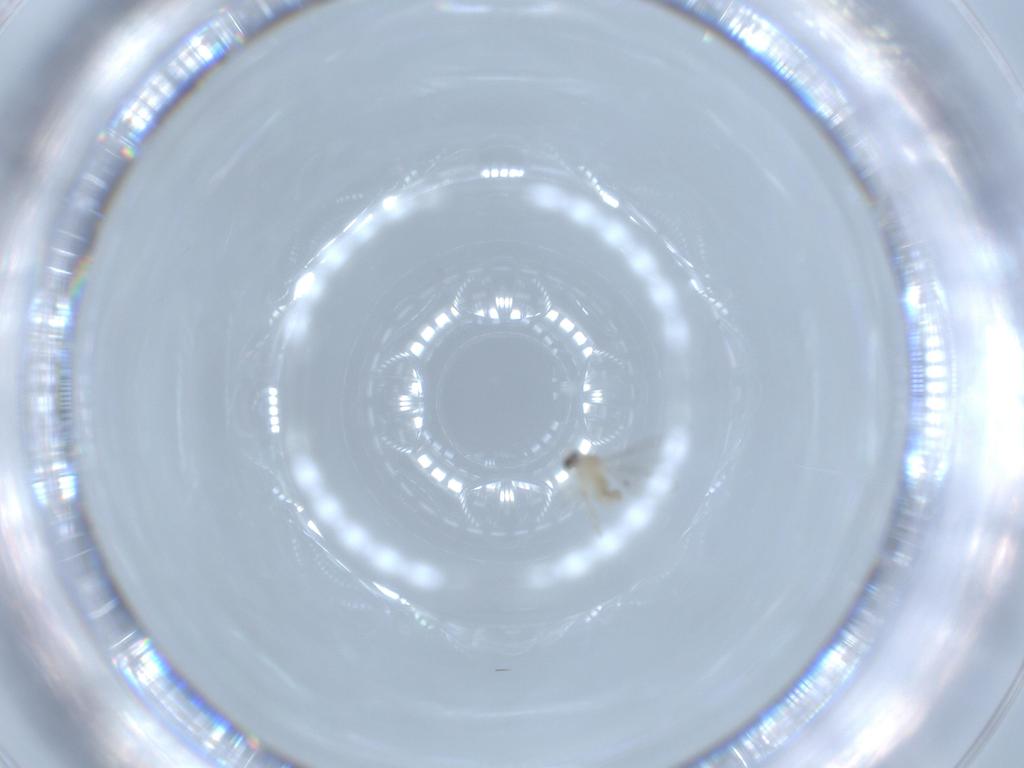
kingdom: Animalia
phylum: Arthropoda
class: Insecta
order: Diptera
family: Cecidomyiidae
